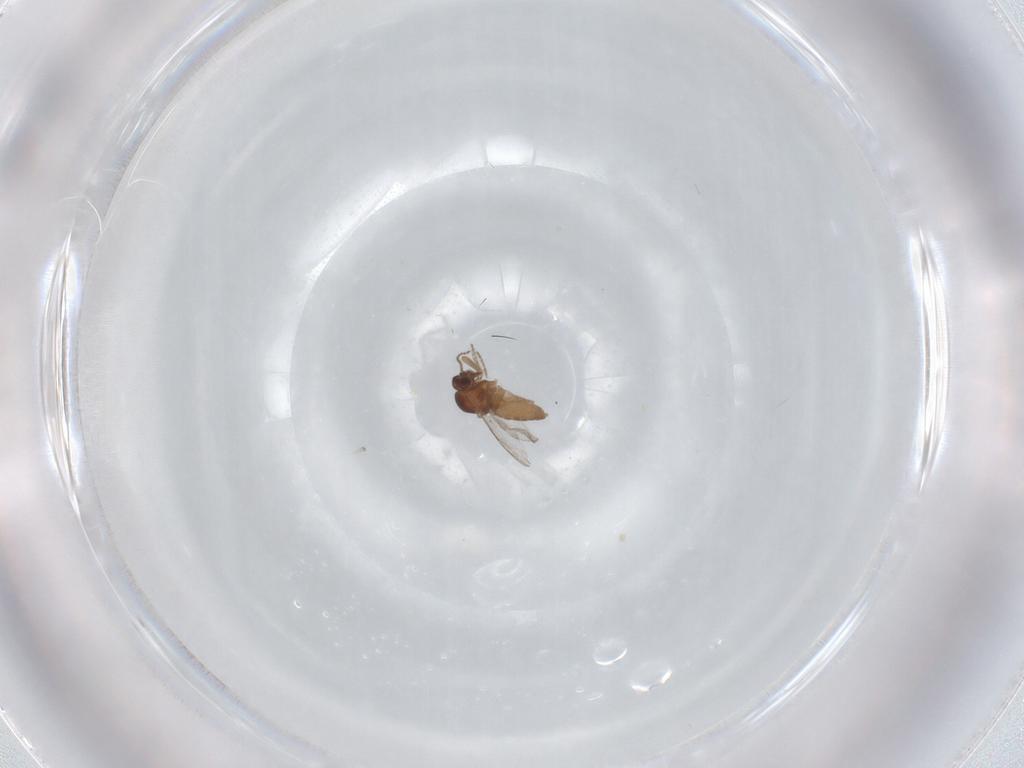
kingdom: Animalia
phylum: Arthropoda
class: Insecta
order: Diptera
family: Ceratopogonidae
